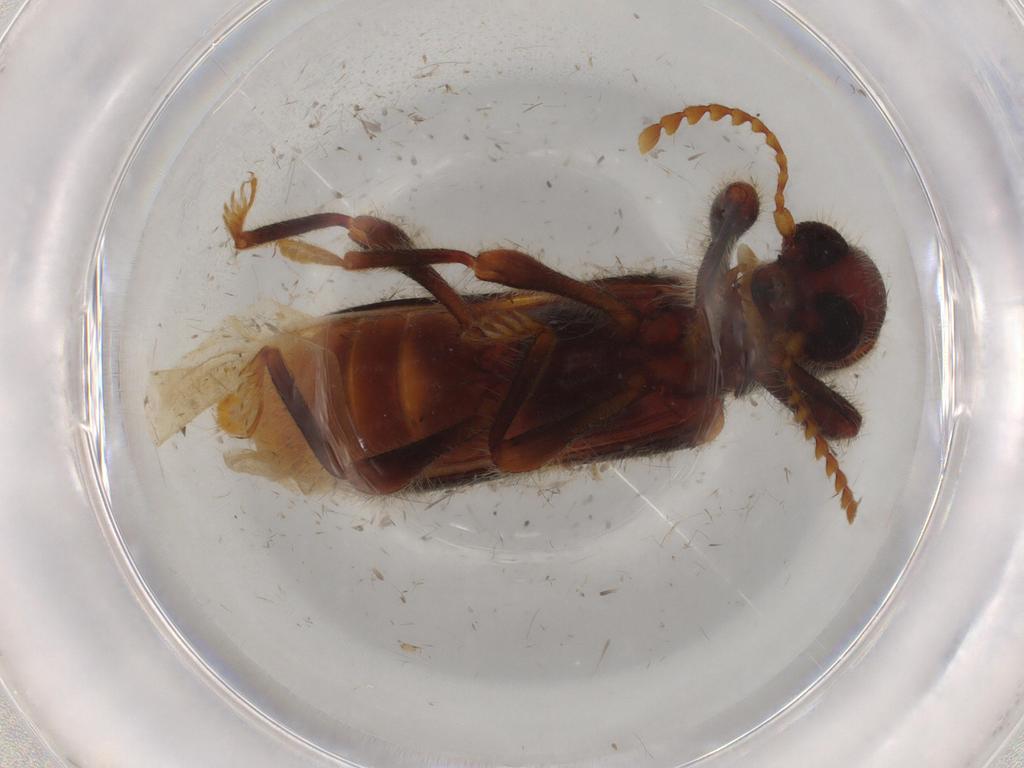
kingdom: Animalia
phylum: Arthropoda
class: Insecta
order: Coleoptera
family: Cleridae
